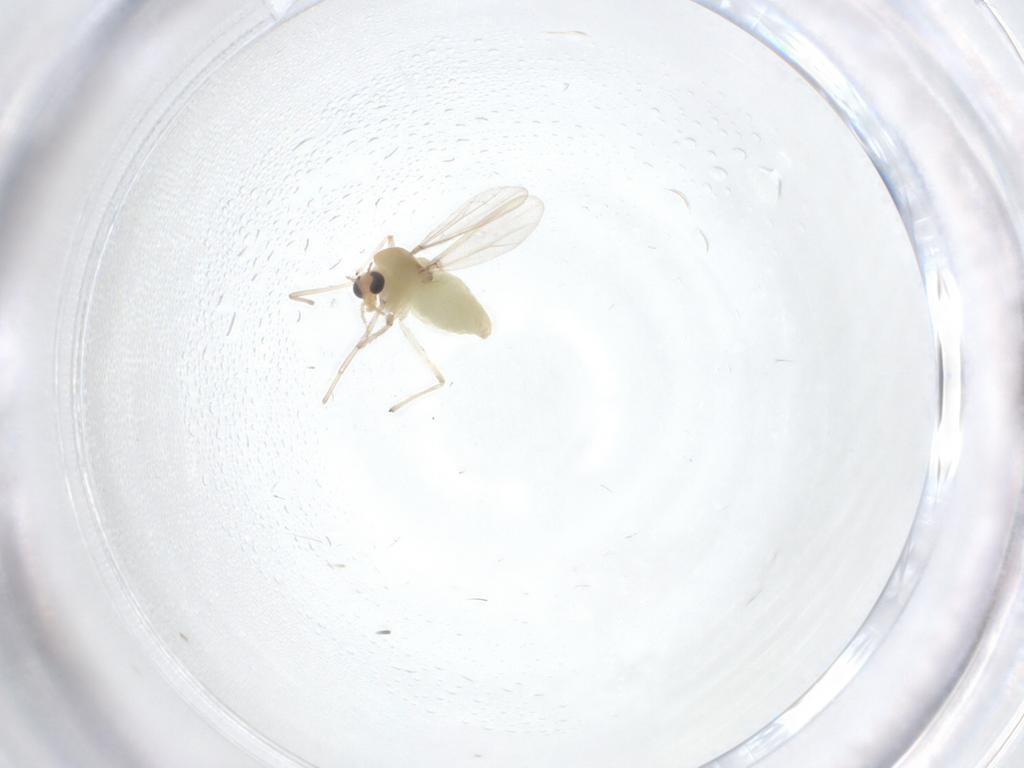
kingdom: Animalia
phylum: Arthropoda
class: Insecta
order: Diptera
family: Chironomidae
